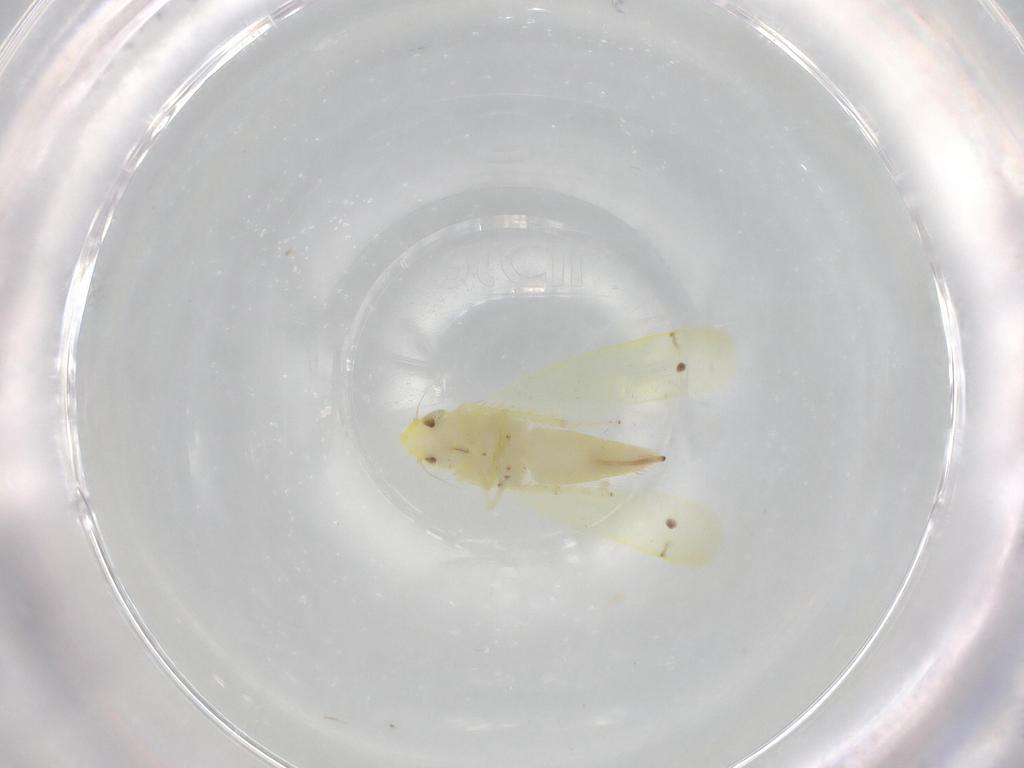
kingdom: Animalia
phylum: Arthropoda
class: Insecta
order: Hemiptera
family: Cicadellidae
